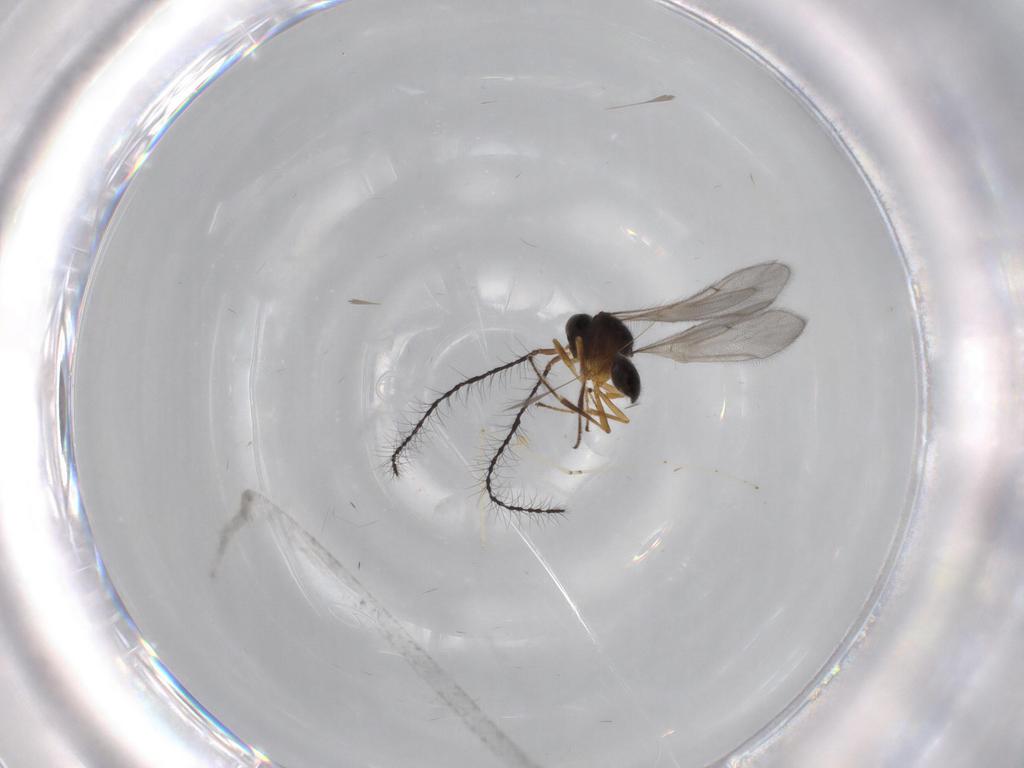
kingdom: Animalia
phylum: Arthropoda
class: Insecta
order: Hymenoptera
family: Scelionidae
